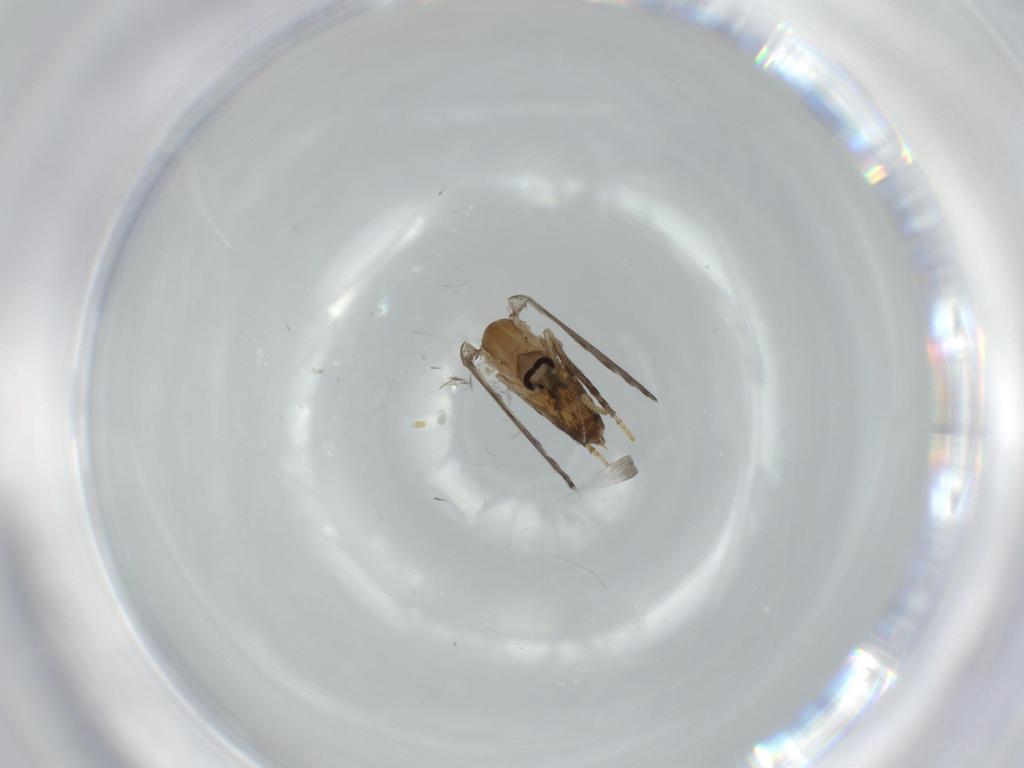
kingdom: Animalia
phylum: Arthropoda
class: Insecta
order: Diptera
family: Psychodidae
